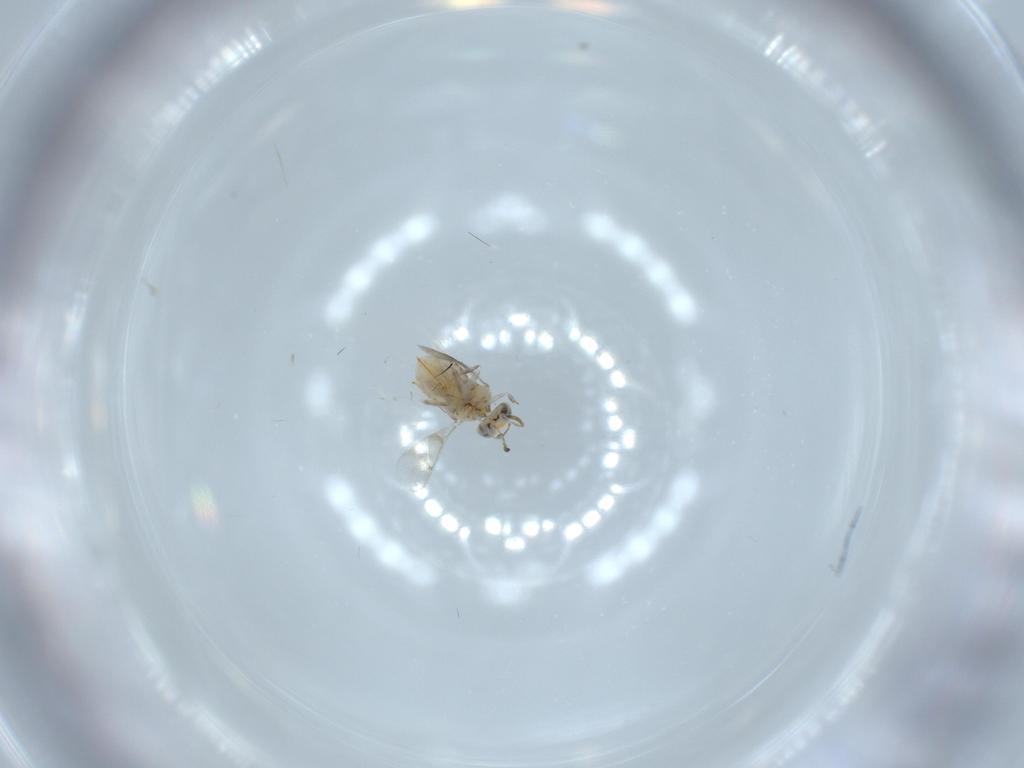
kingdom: Animalia
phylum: Arthropoda
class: Insecta
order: Hymenoptera
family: Aphelinidae
